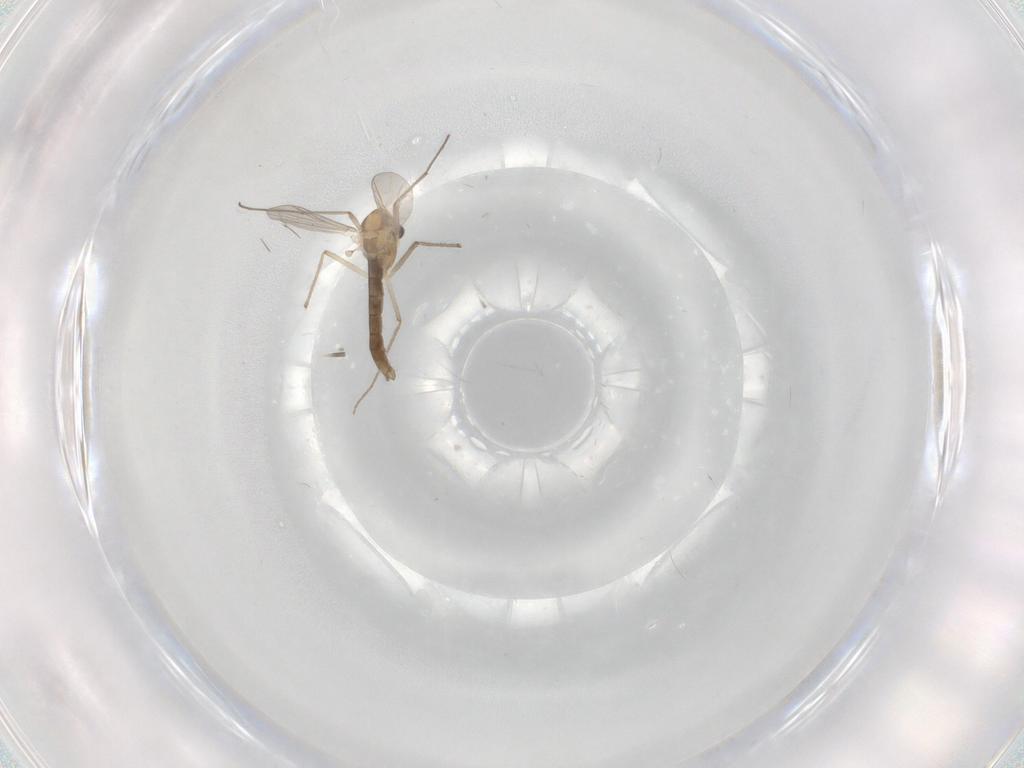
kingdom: Animalia
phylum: Arthropoda
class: Insecta
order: Diptera
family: Chironomidae
